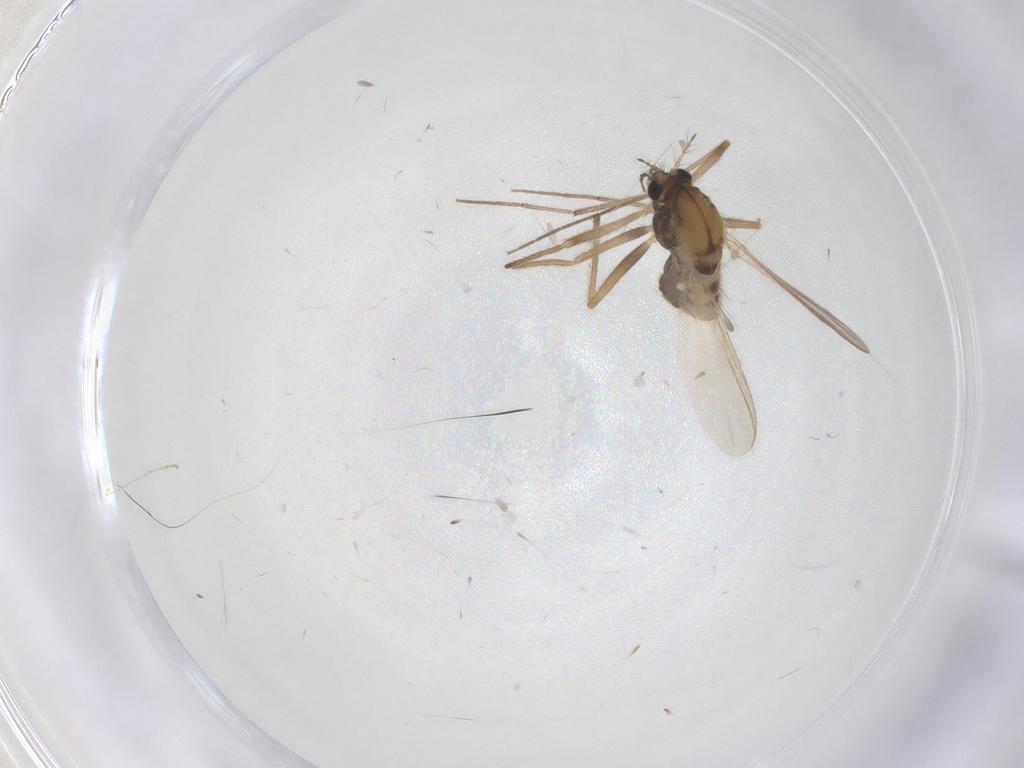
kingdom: Animalia
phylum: Arthropoda
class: Insecta
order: Diptera
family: Chironomidae
